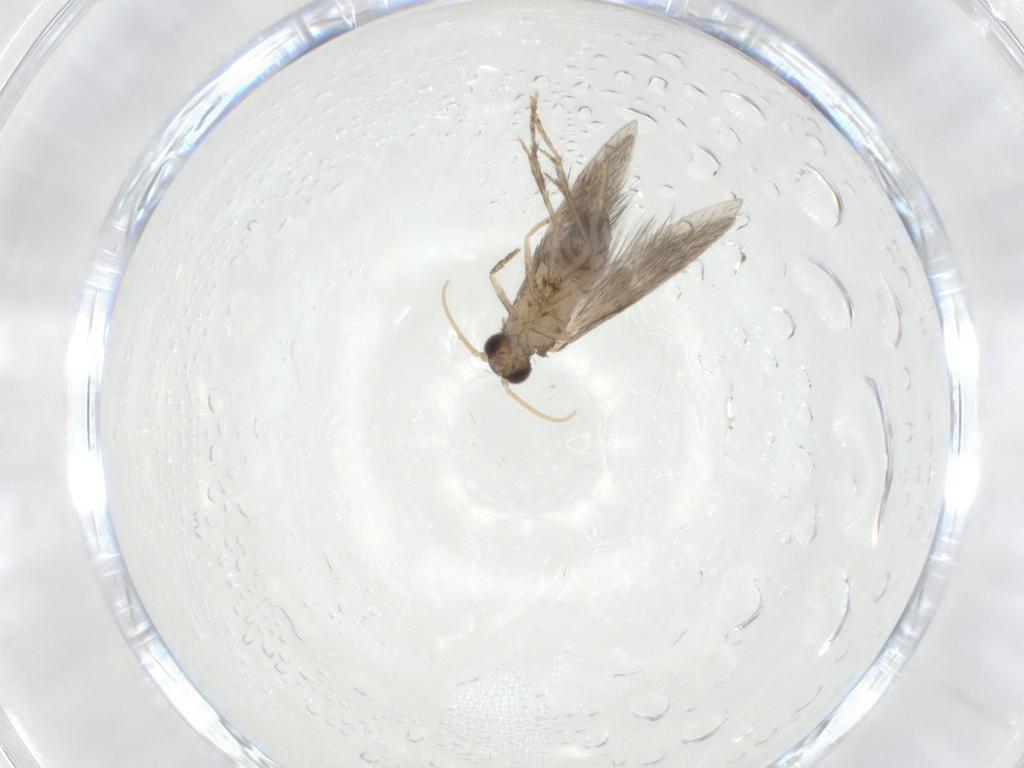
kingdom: Animalia
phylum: Arthropoda
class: Insecta
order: Trichoptera
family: Hydroptilidae
